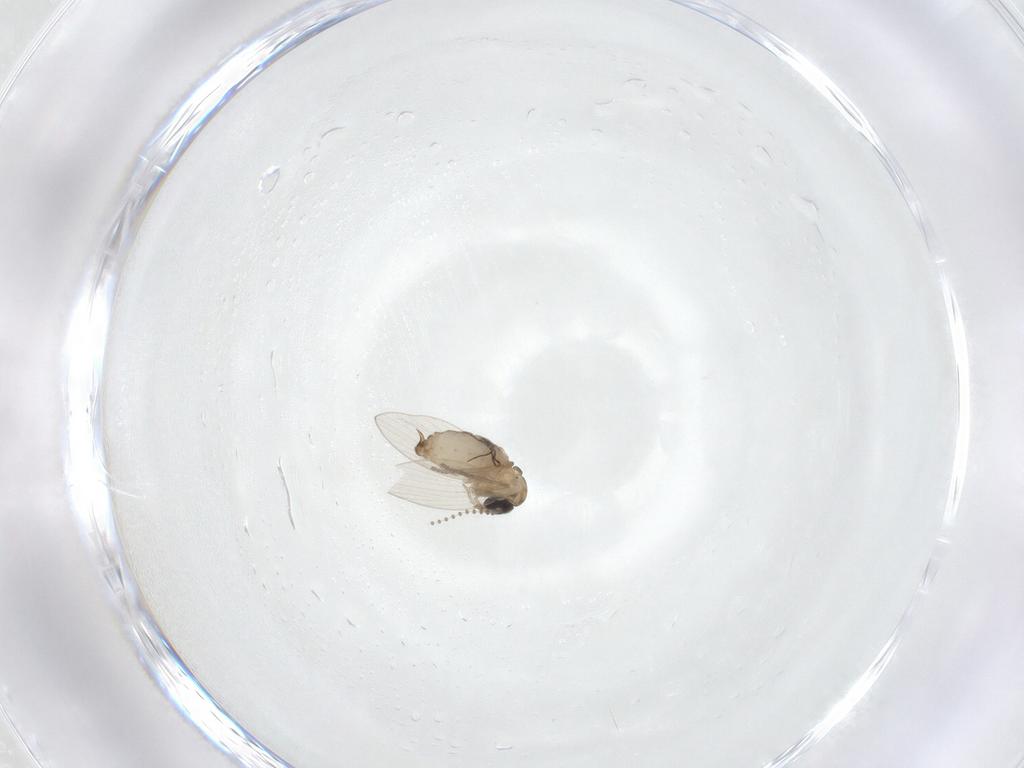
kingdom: Animalia
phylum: Arthropoda
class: Insecta
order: Diptera
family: Psychodidae
